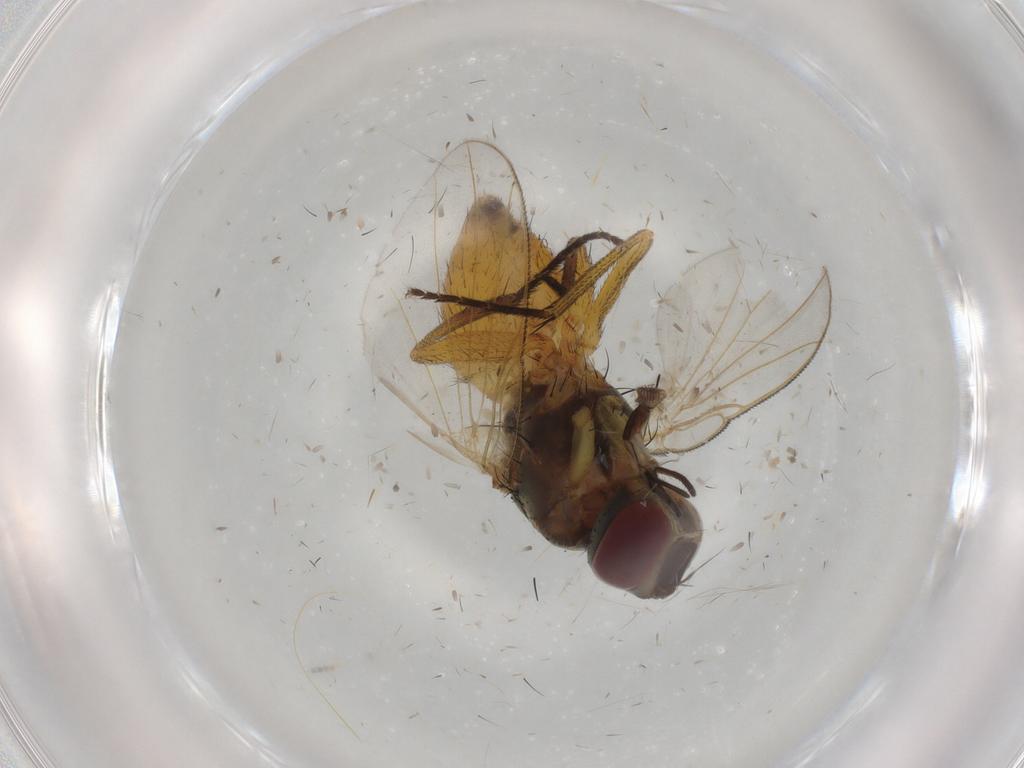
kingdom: Animalia
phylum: Arthropoda
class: Insecta
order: Diptera
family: Muscidae
